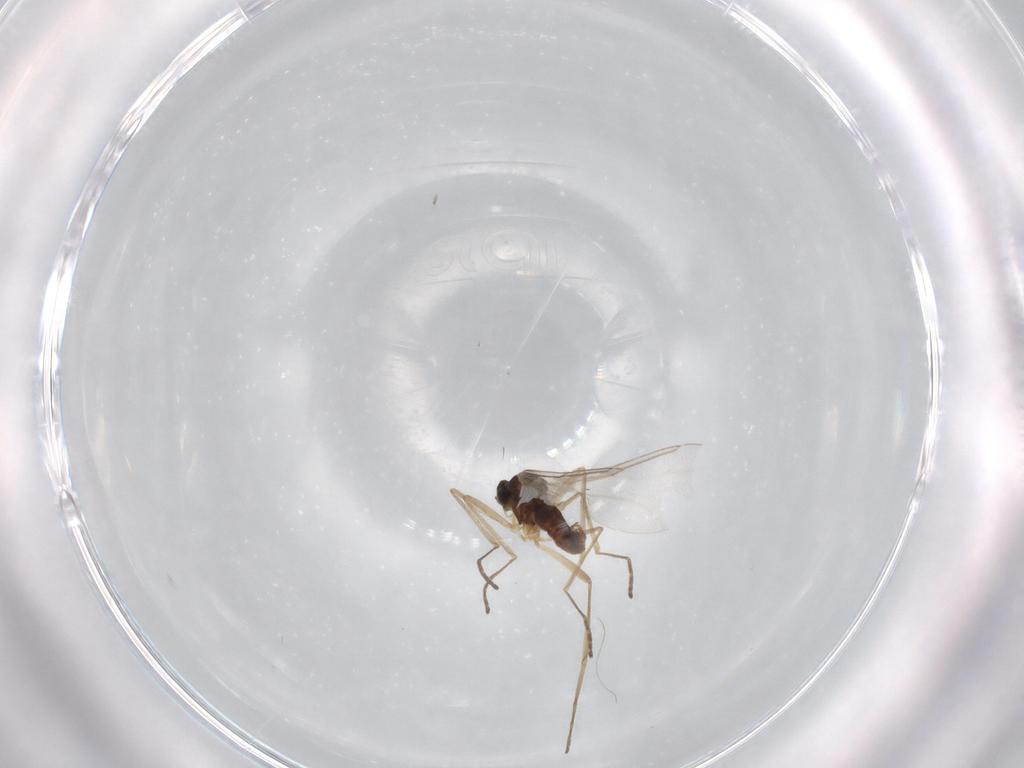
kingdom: Animalia
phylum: Arthropoda
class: Insecta
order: Diptera
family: Cecidomyiidae
